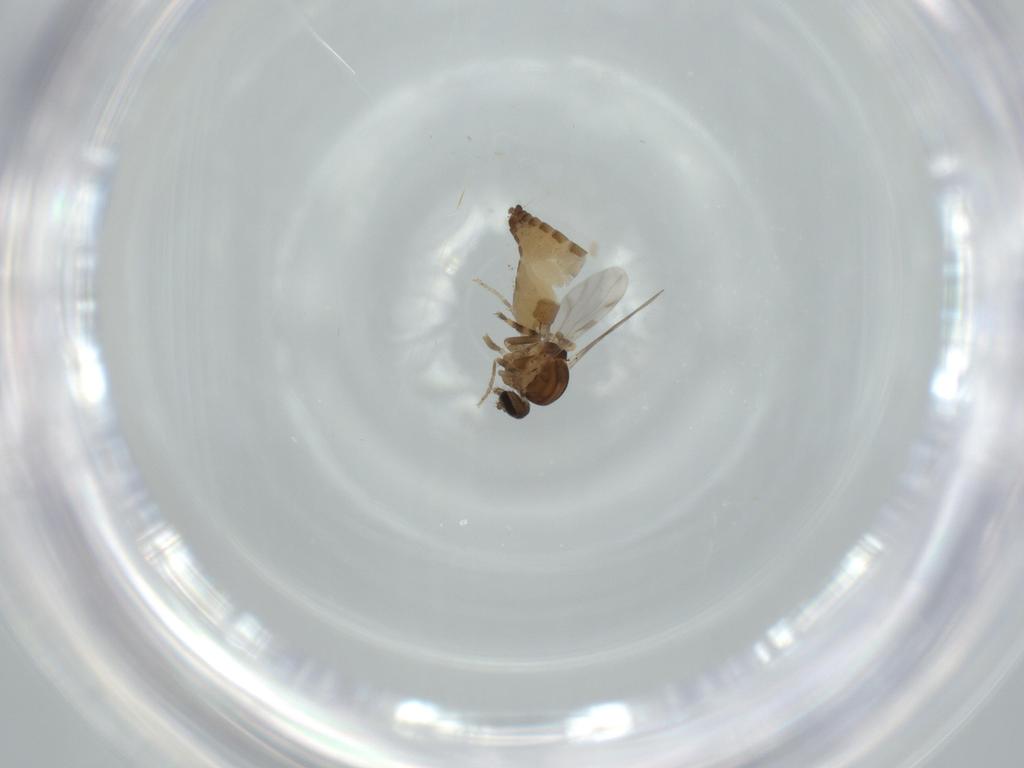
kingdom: Animalia
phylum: Arthropoda
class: Insecta
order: Diptera
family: Ceratopogonidae
